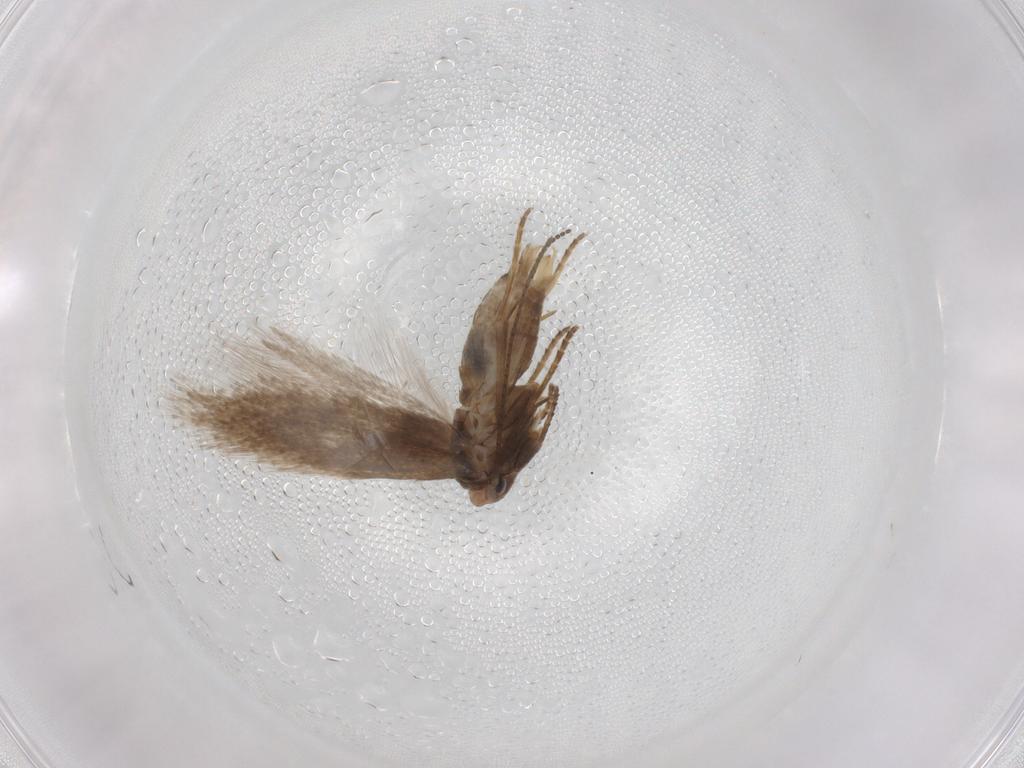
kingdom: Animalia
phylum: Arthropoda
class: Insecta
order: Lepidoptera
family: Bucculatricidae
